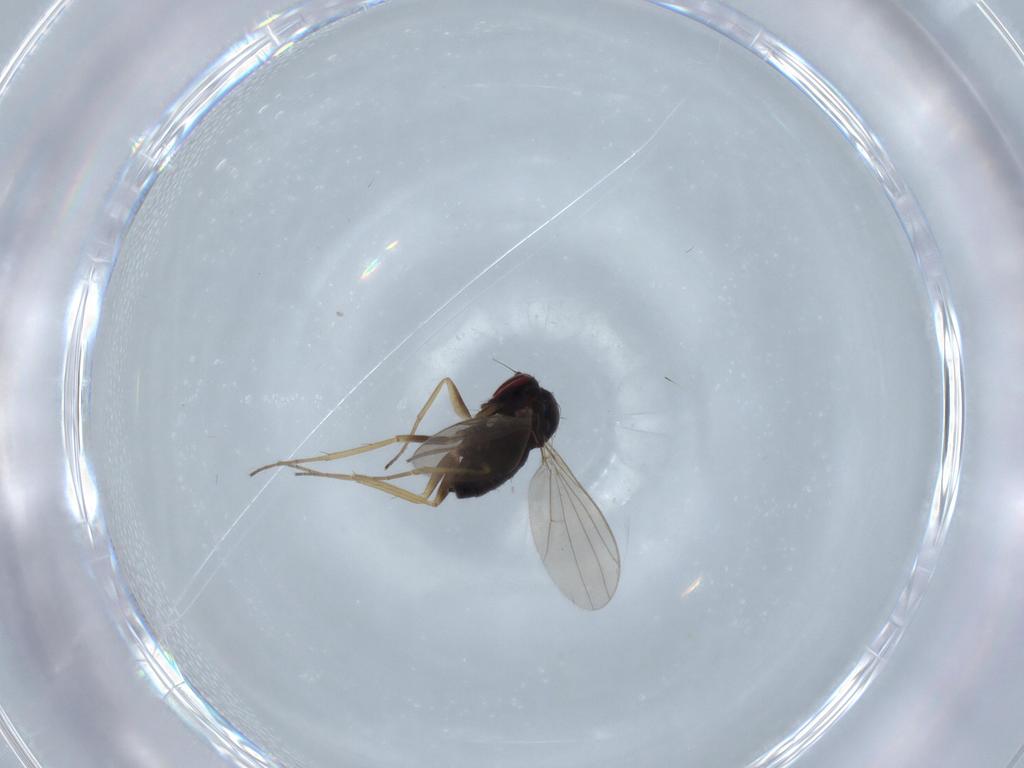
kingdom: Animalia
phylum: Arthropoda
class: Insecta
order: Diptera
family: Dolichopodidae
